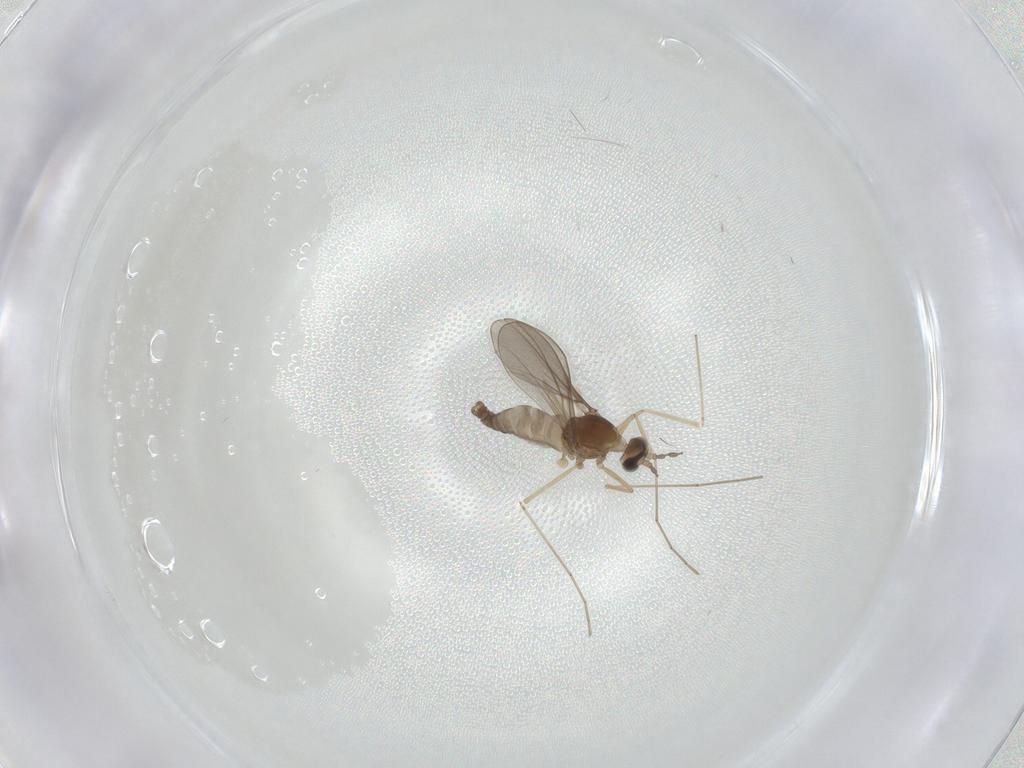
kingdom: Animalia
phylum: Arthropoda
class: Insecta
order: Diptera
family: Cecidomyiidae
